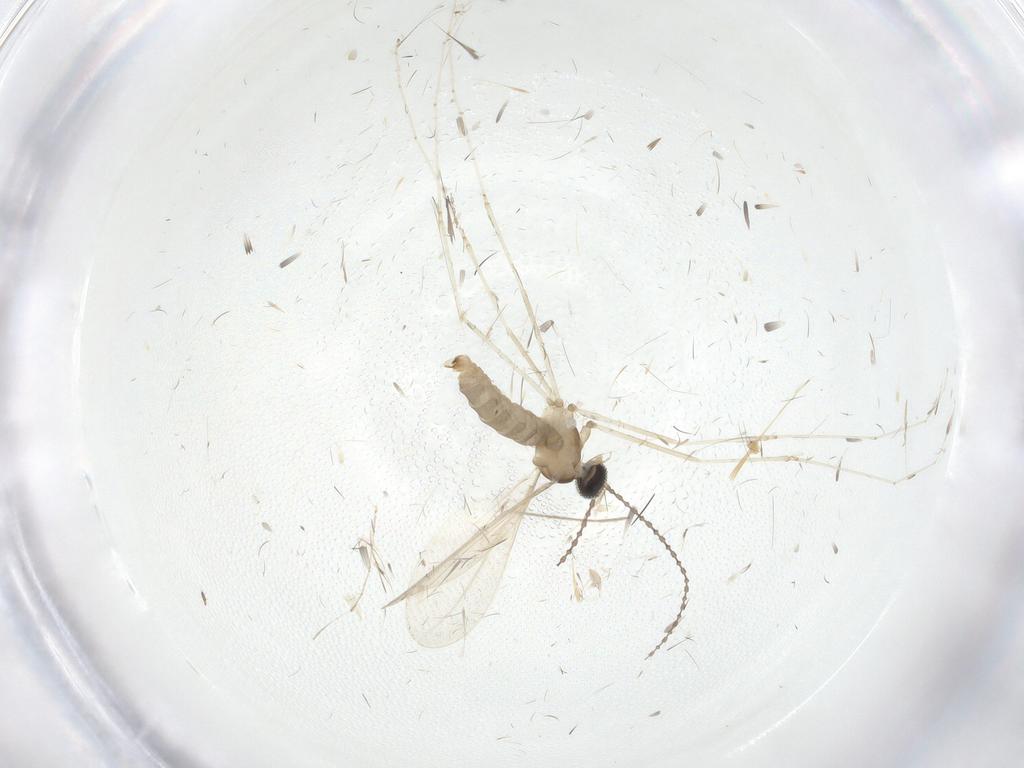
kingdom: Animalia
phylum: Arthropoda
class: Insecta
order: Diptera
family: Cecidomyiidae
